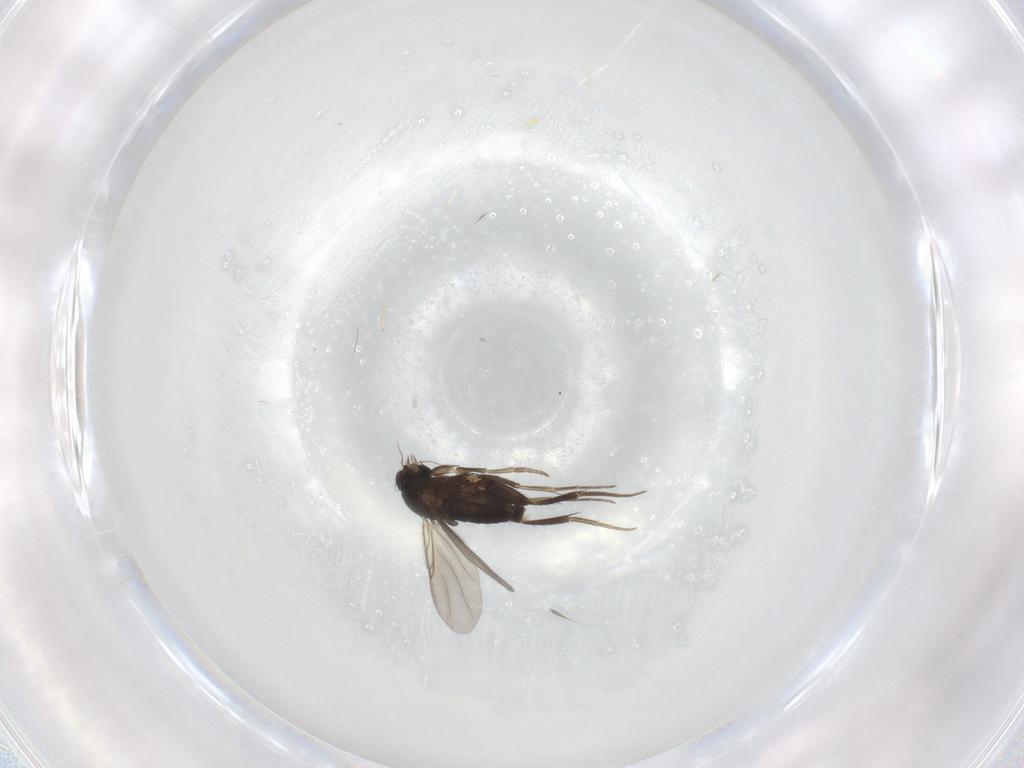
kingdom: Animalia
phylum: Arthropoda
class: Insecta
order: Diptera
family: Phoridae
